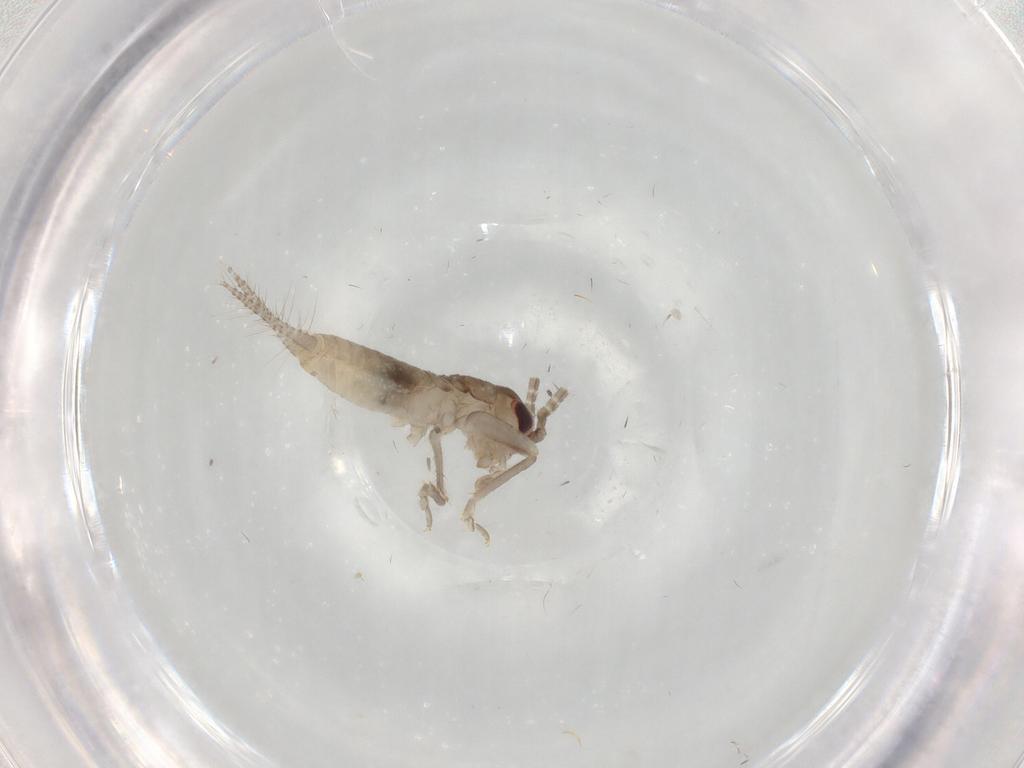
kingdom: Animalia
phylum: Arthropoda
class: Insecta
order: Orthoptera
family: Gryllidae
